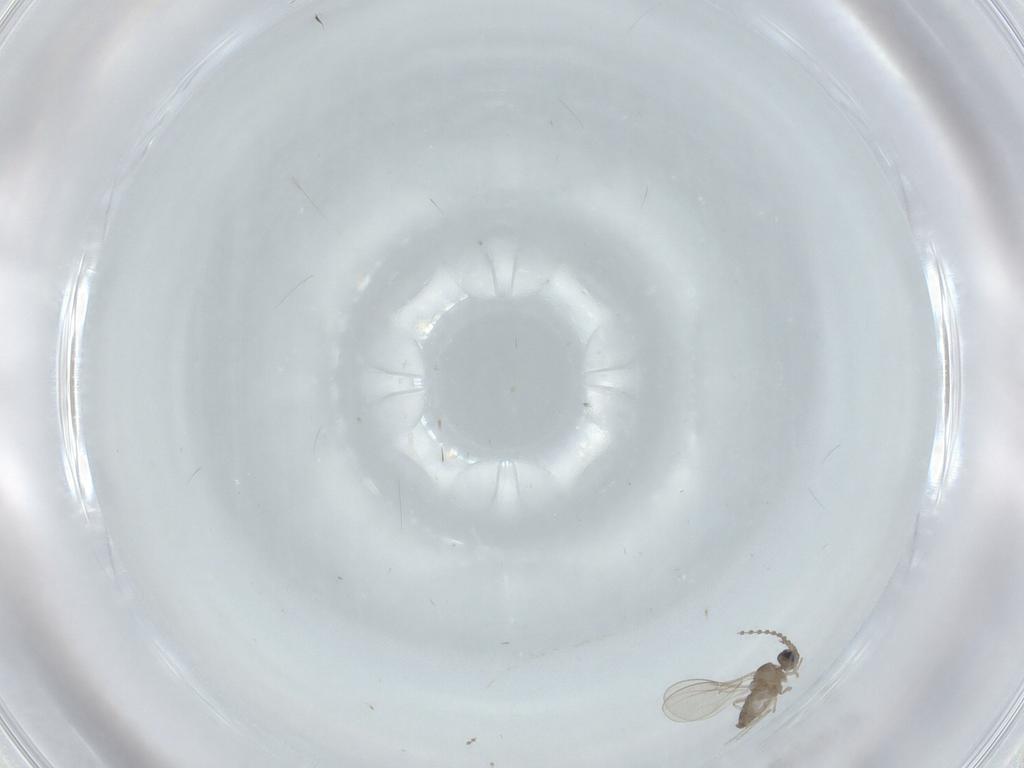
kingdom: Animalia
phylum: Arthropoda
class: Insecta
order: Diptera
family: Cecidomyiidae
